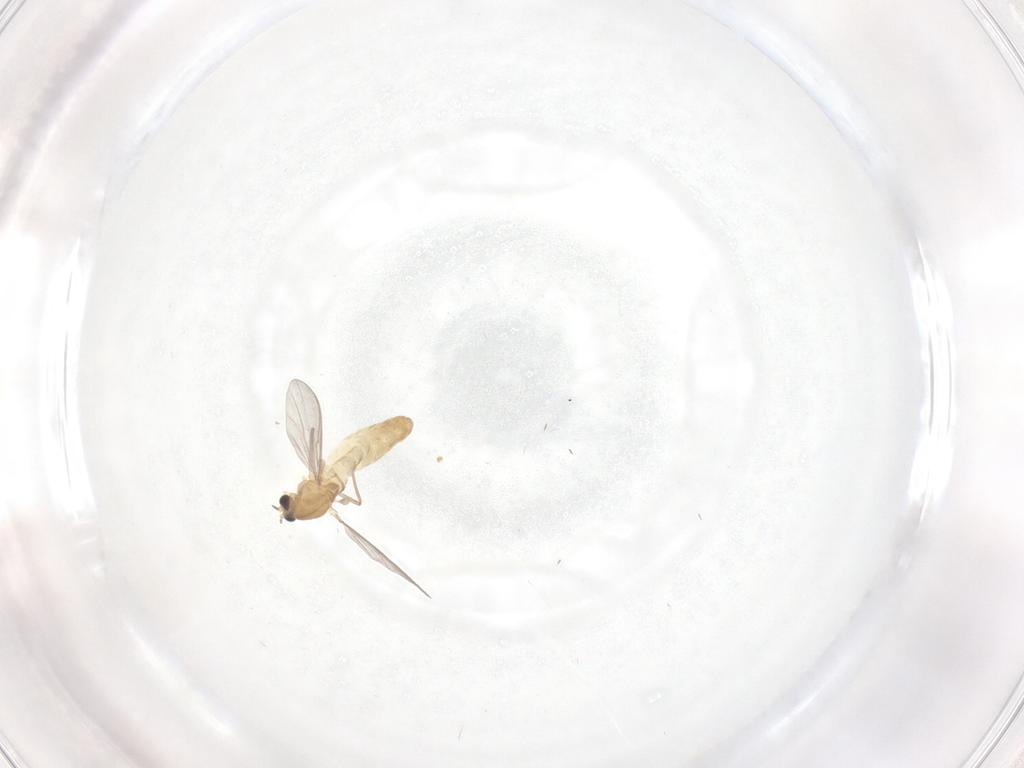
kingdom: Animalia
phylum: Arthropoda
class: Insecta
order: Diptera
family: Chironomidae
